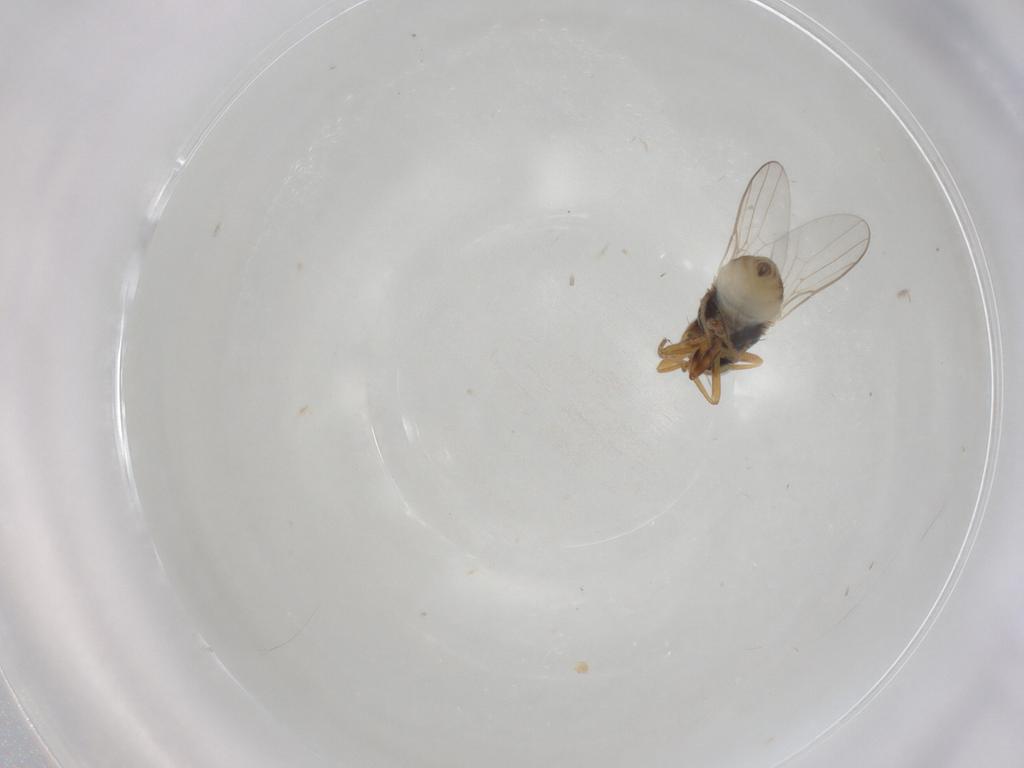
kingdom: Animalia
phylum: Arthropoda
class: Insecta
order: Diptera
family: Chloropidae
